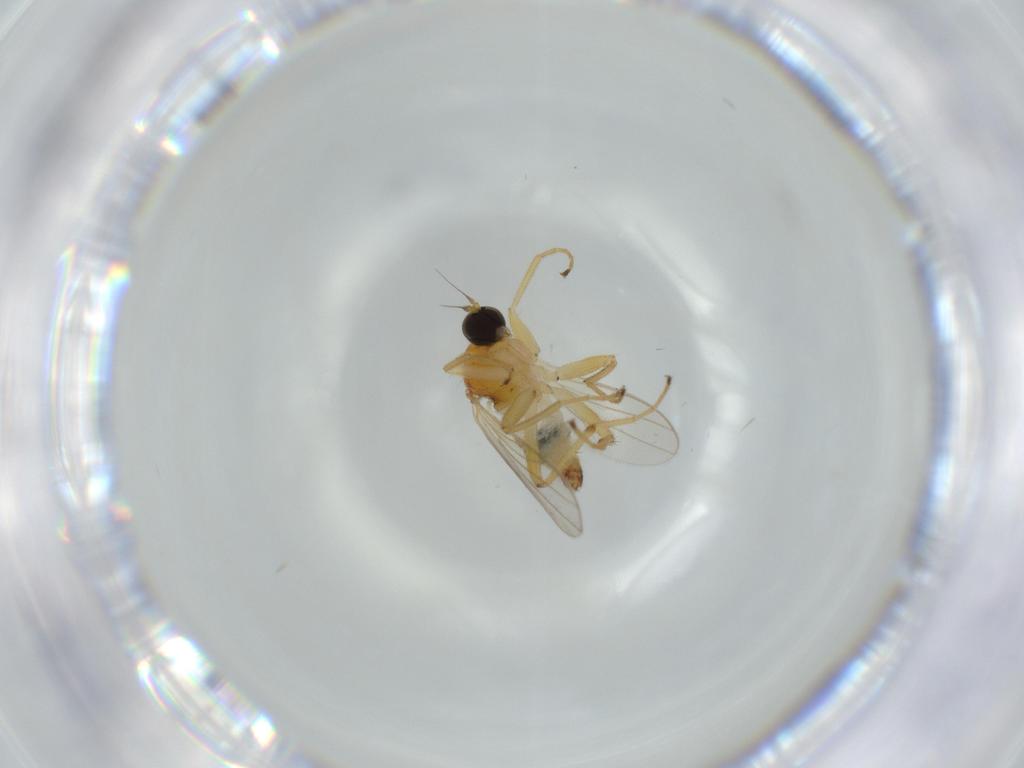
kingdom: Animalia
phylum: Arthropoda
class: Insecta
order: Diptera
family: Hybotidae
